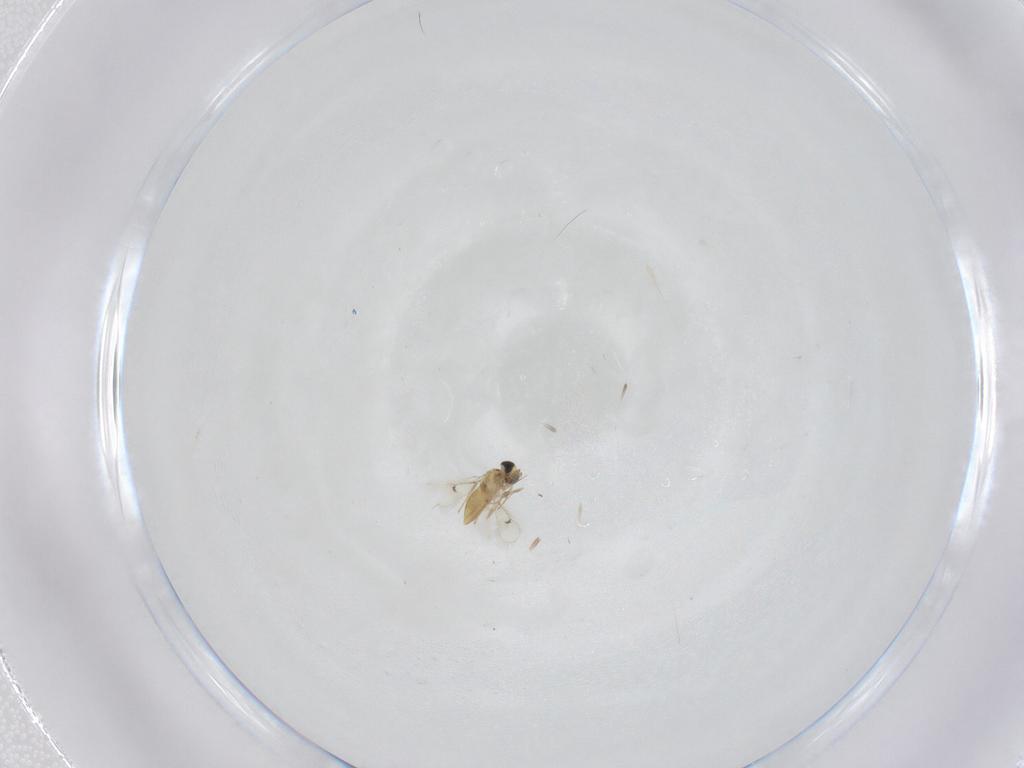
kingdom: Animalia
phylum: Arthropoda
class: Insecta
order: Hymenoptera
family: Trichogrammatidae
